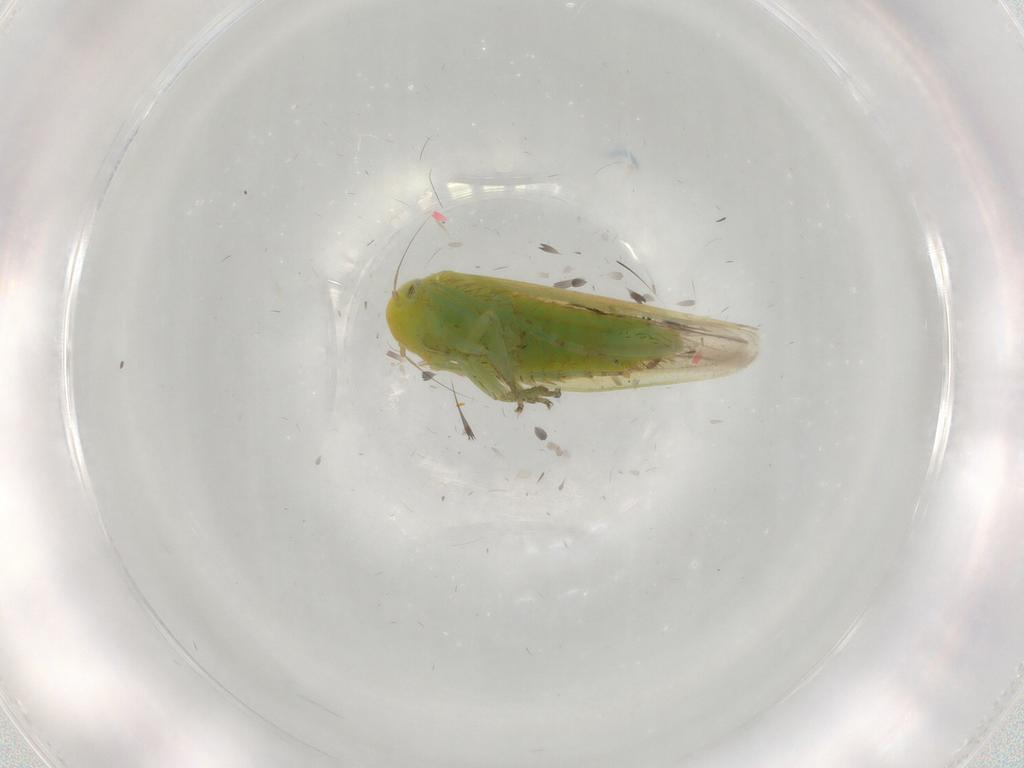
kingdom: Animalia
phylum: Arthropoda
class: Insecta
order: Hemiptera
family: Cicadellidae
